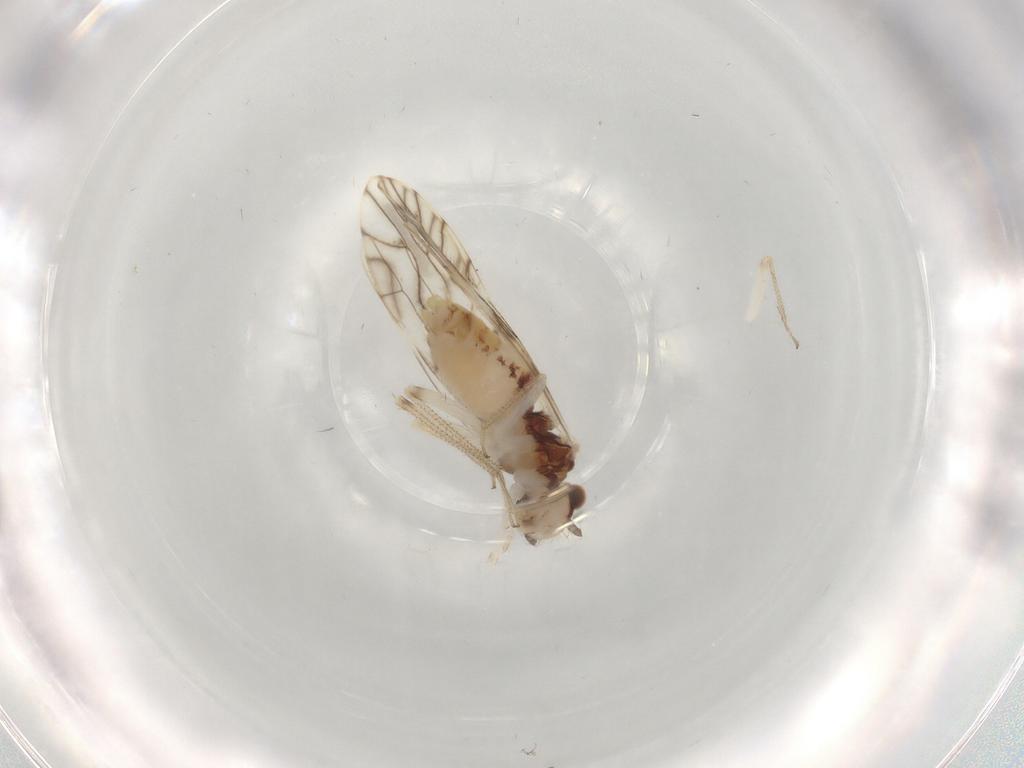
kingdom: Animalia
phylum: Arthropoda
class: Insecta
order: Psocodea
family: Caeciliusidae
